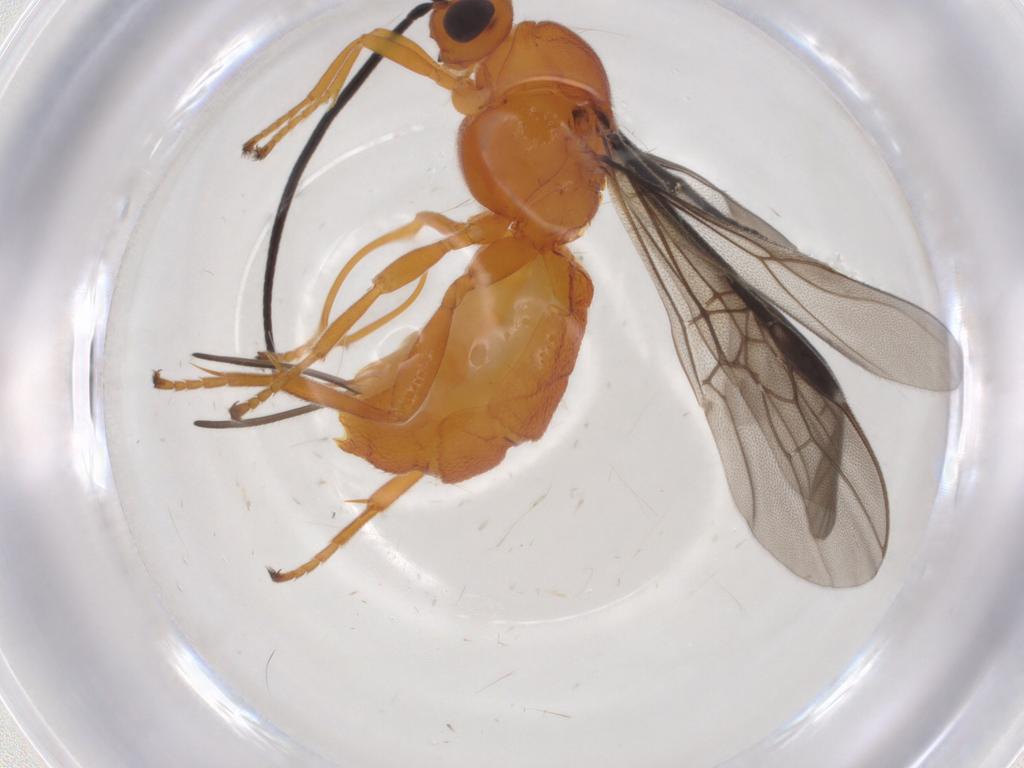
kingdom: Animalia
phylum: Arthropoda
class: Insecta
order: Hymenoptera
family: Braconidae
